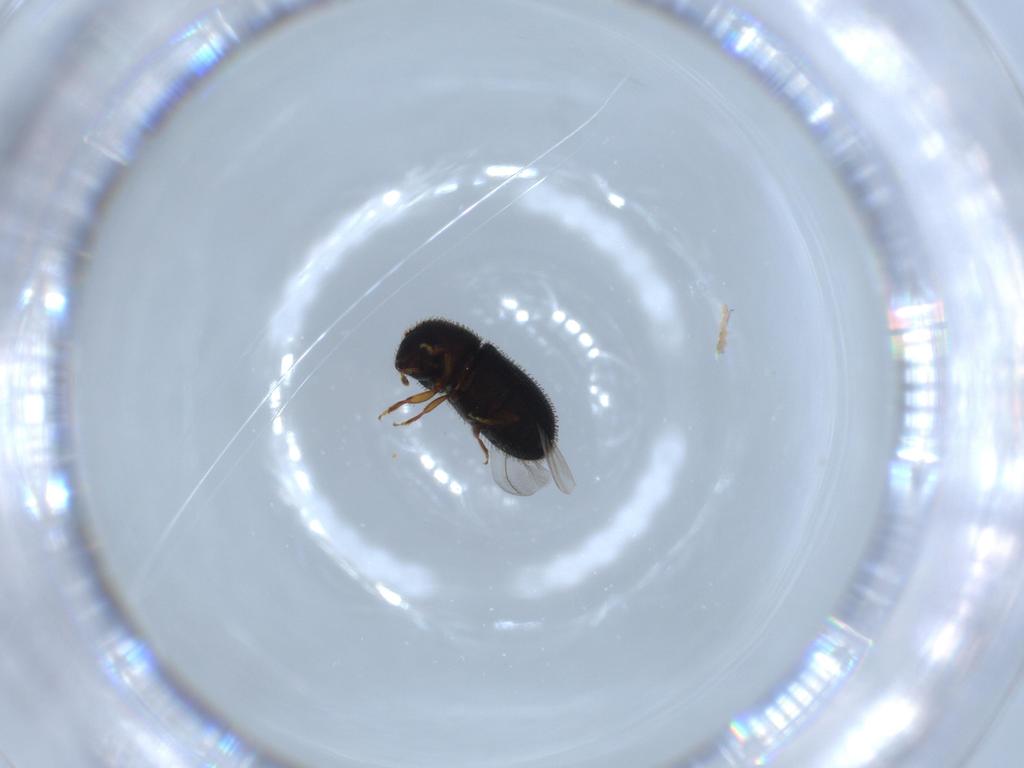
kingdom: Animalia
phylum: Arthropoda
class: Insecta
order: Coleoptera
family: Curculionidae
